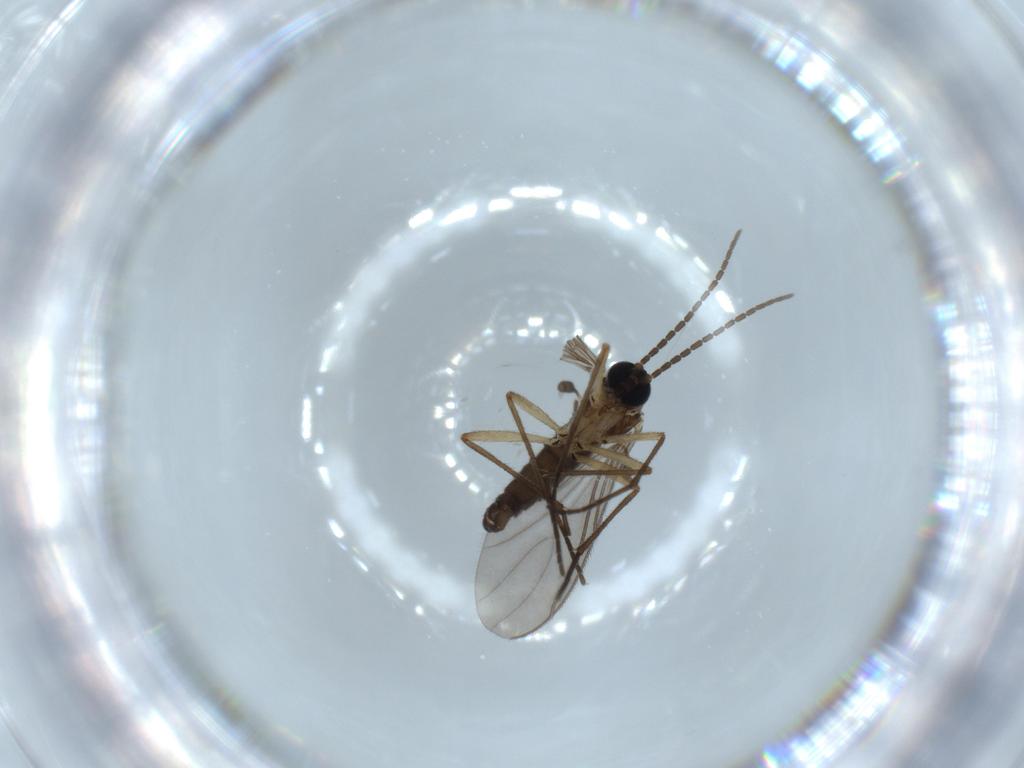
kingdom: Animalia
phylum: Arthropoda
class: Insecta
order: Diptera
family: Sciaridae
